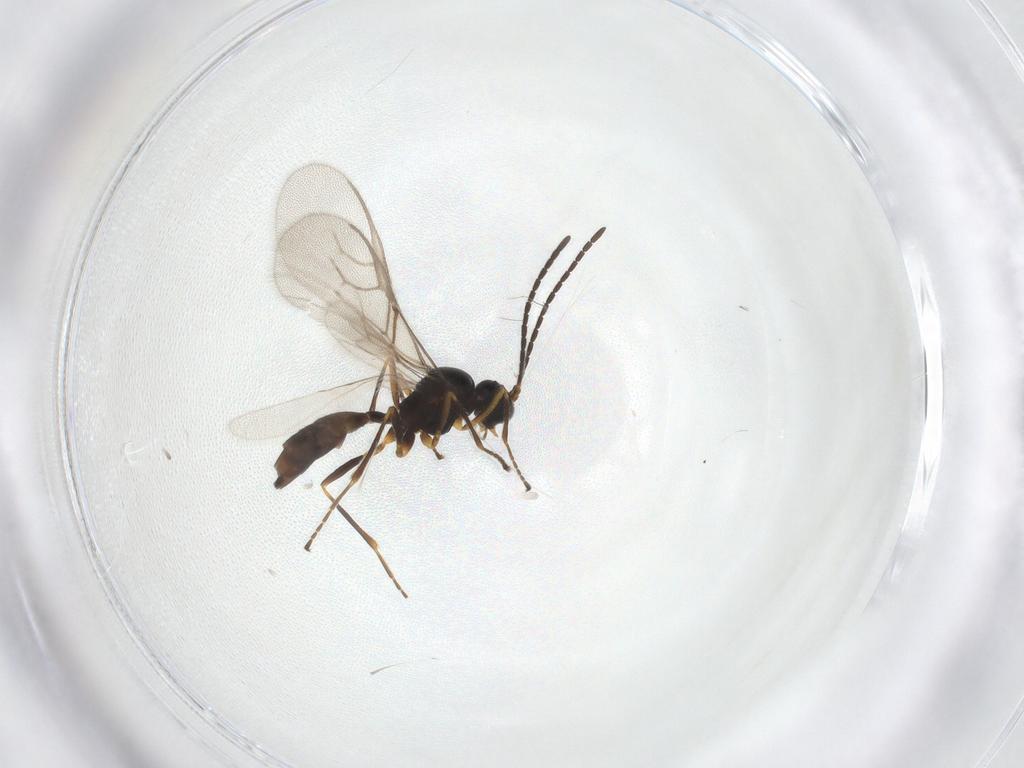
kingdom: Animalia
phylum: Arthropoda
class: Insecta
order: Hymenoptera
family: Braconidae
